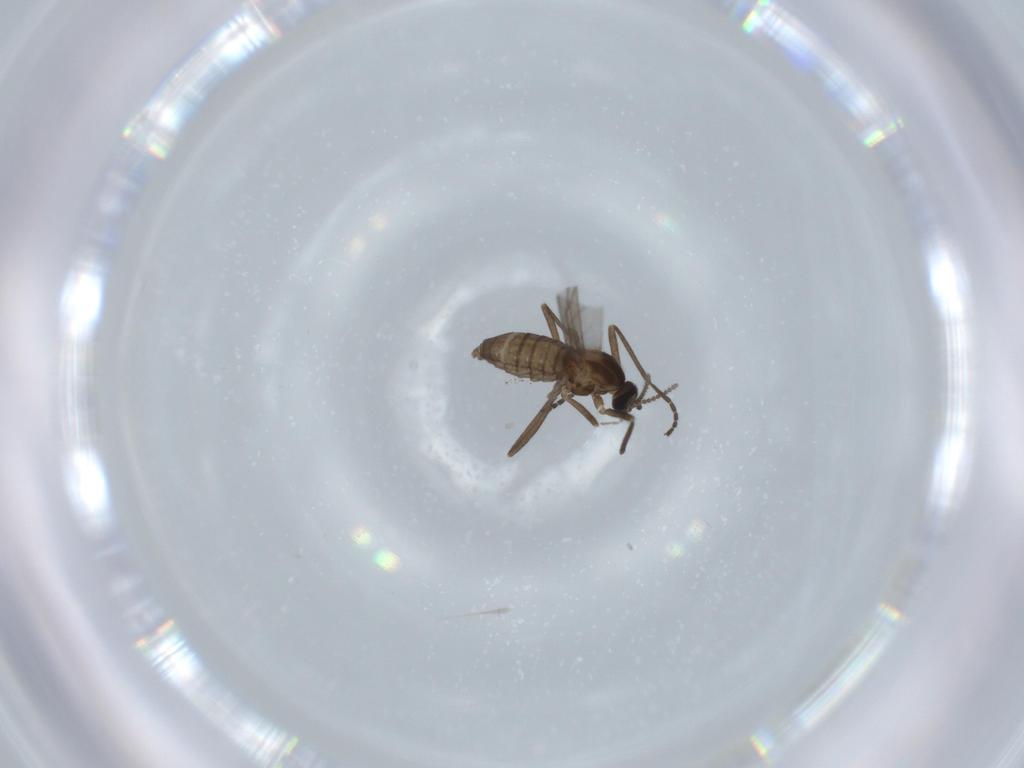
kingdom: Animalia
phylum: Arthropoda
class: Insecta
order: Diptera
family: Cecidomyiidae
